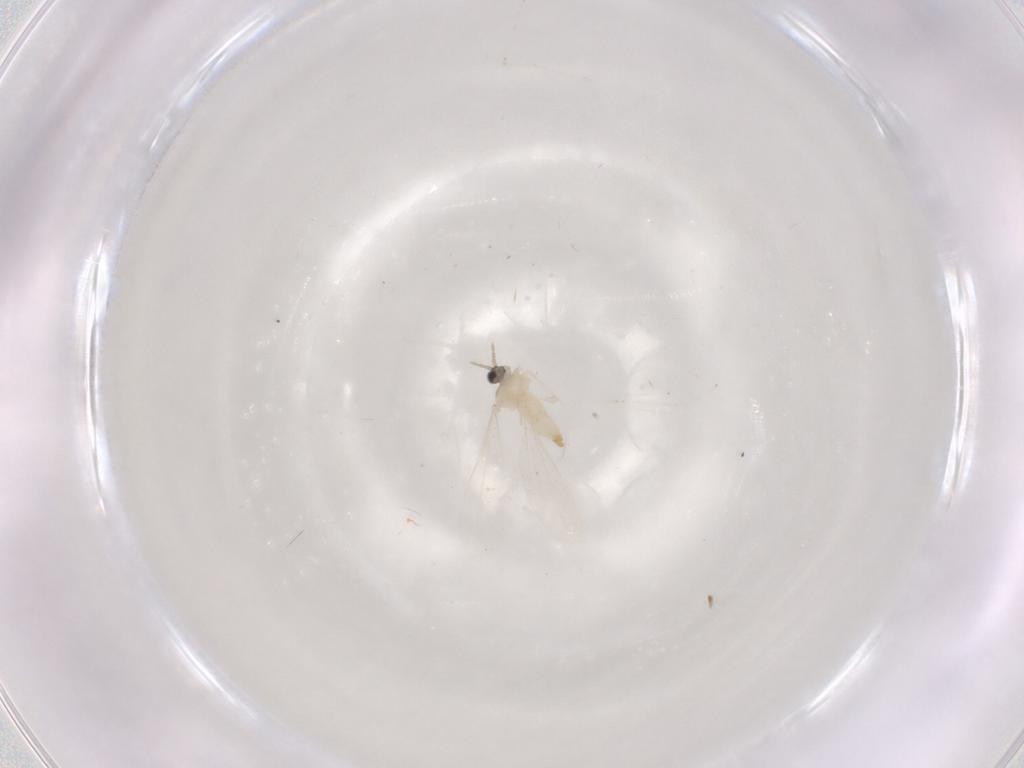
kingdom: Animalia
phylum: Arthropoda
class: Insecta
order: Diptera
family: Cecidomyiidae
